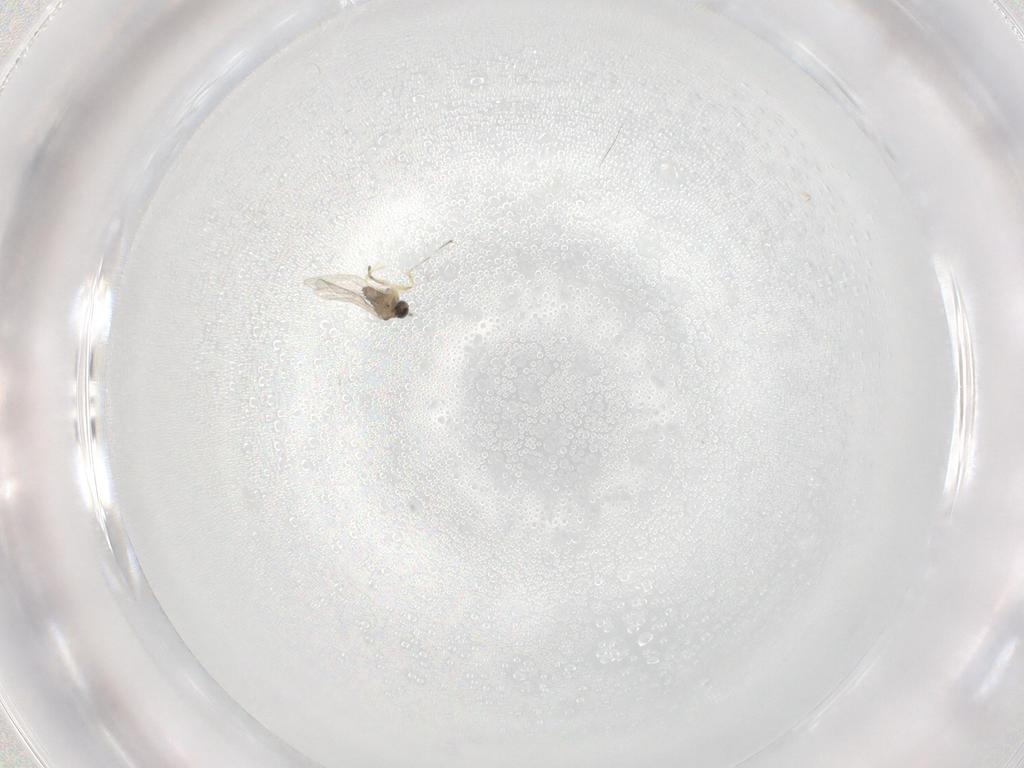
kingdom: Animalia
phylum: Arthropoda
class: Insecta
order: Diptera
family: Cecidomyiidae
